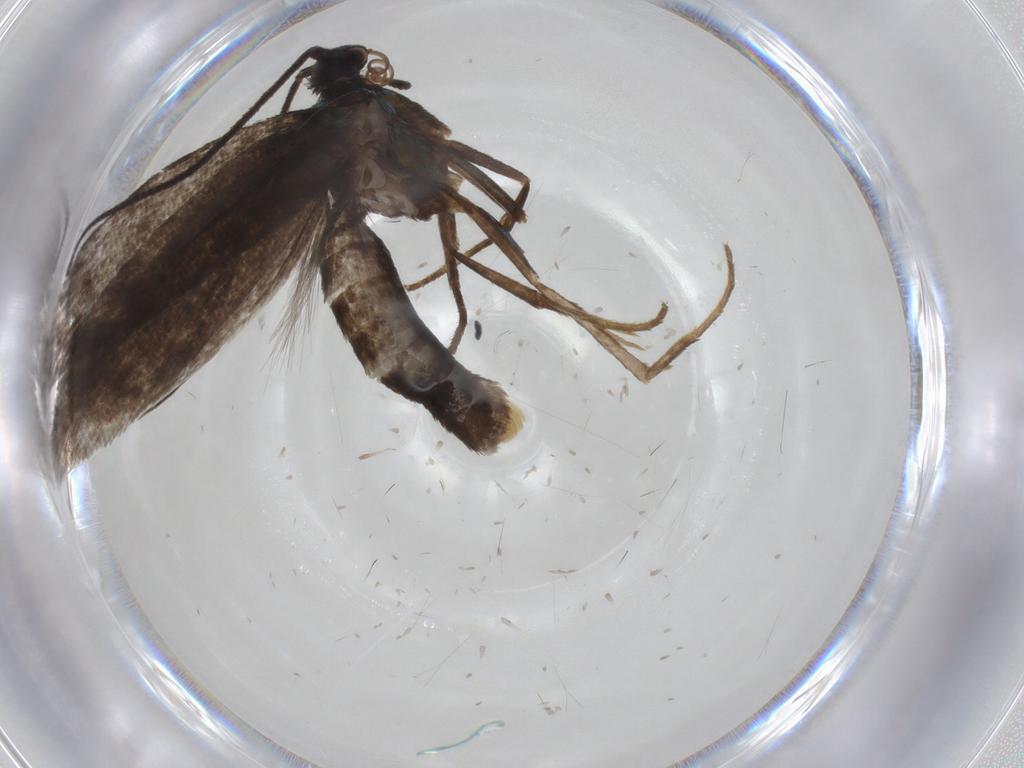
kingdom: Animalia
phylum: Arthropoda
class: Insecta
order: Lepidoptera
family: Argyresthiidae
